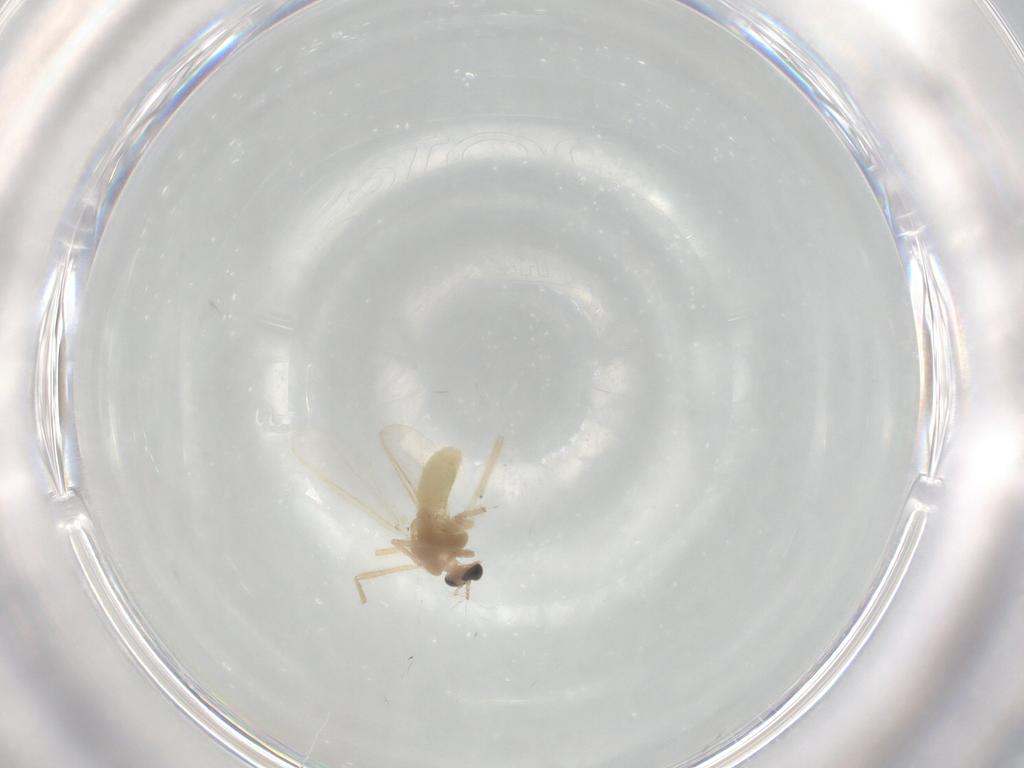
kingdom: Animalia
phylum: Arthropoda
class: Insecta
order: Diptera
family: Chironomidae
